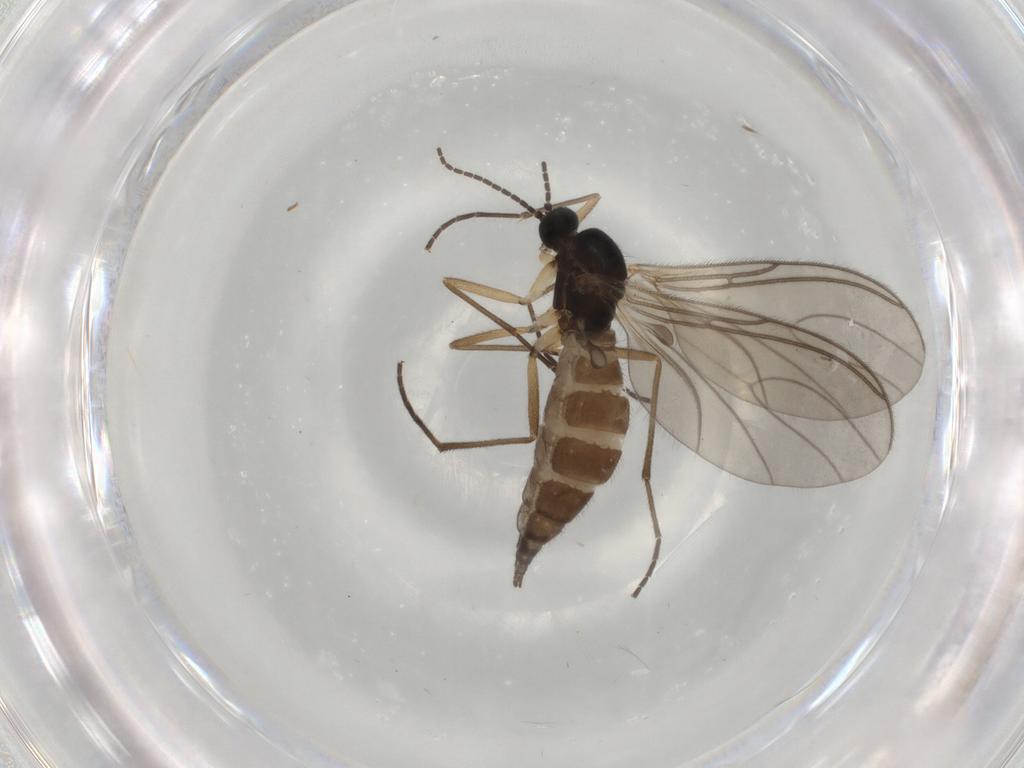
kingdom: Animalia
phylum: Arthropoda
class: Insecta
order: Diptera
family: Sciaridae
